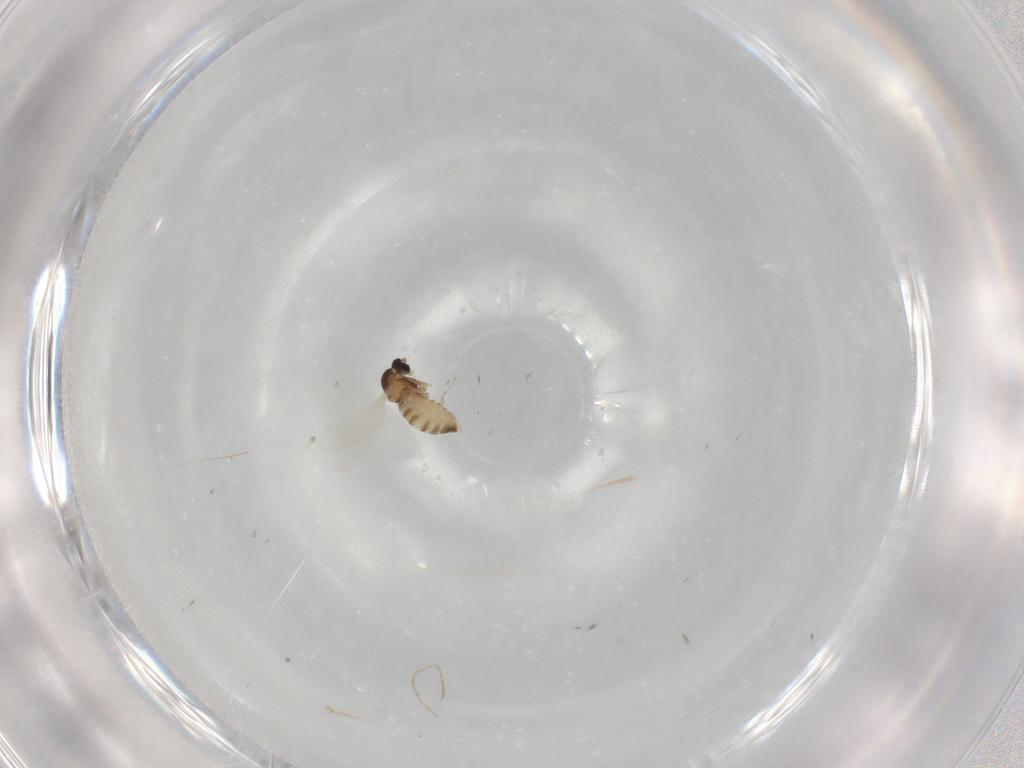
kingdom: Animalia
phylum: Arthropoda
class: Insecta
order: Diptera
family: Cecidomyiidae
